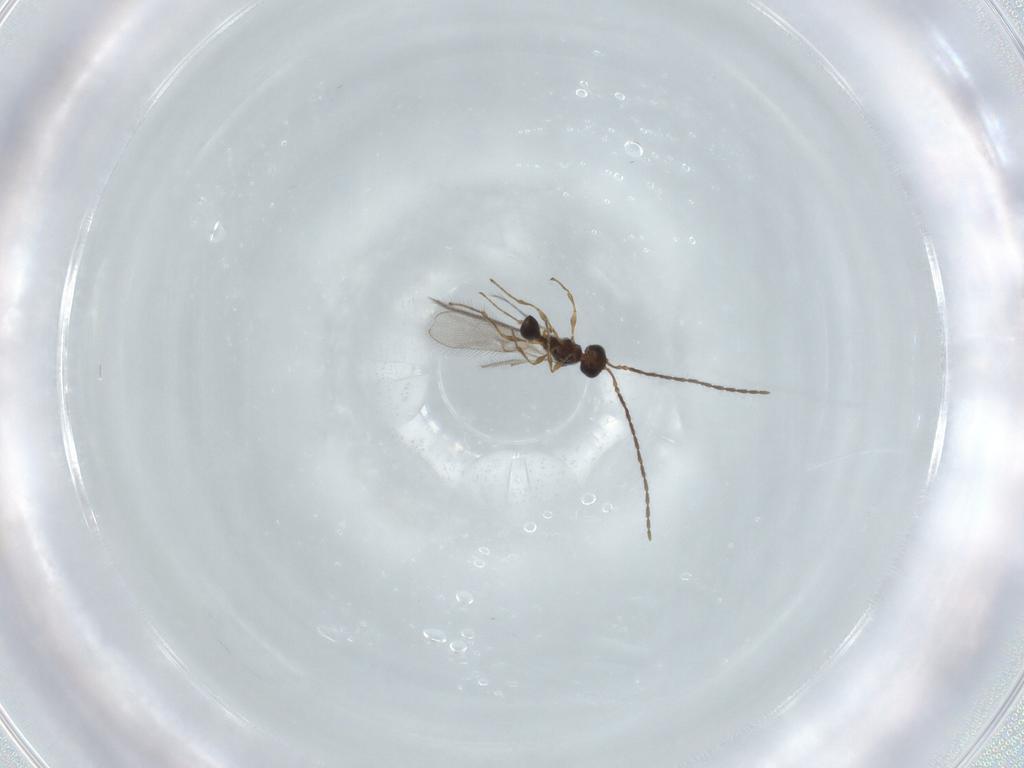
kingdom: Animalia
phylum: Arthropoda
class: Insecta
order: Hymenoptera
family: Diapriidae
